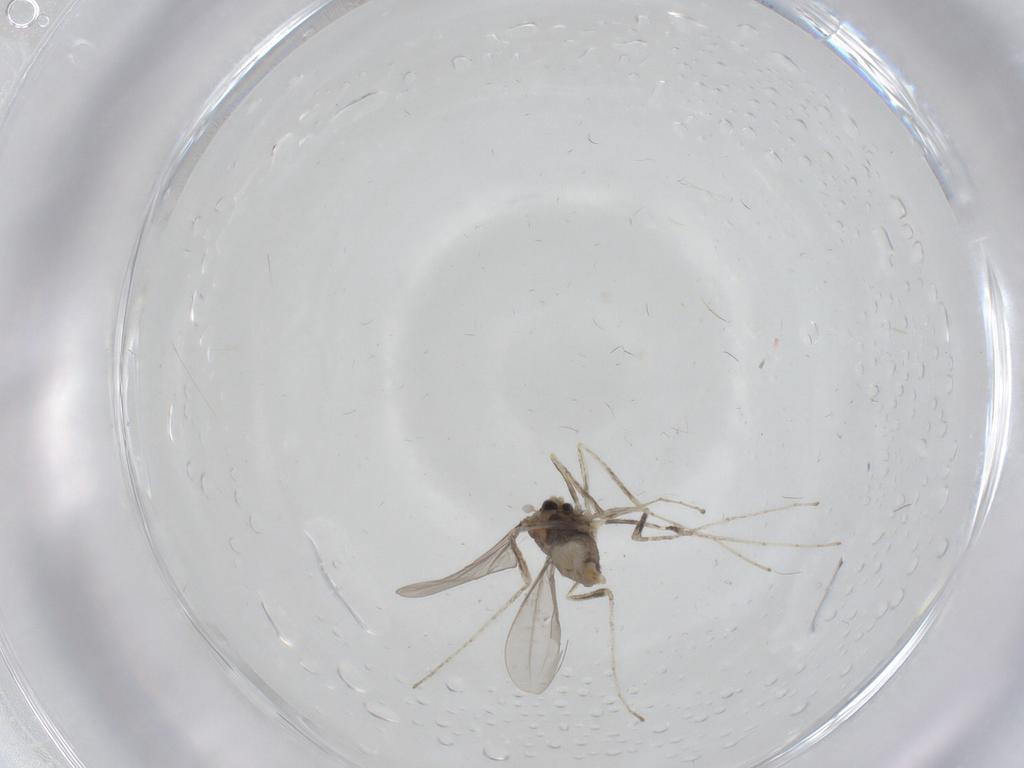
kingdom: Animalia
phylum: Arthropoda
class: Insecta
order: Diptera
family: Cecidomyiidae
